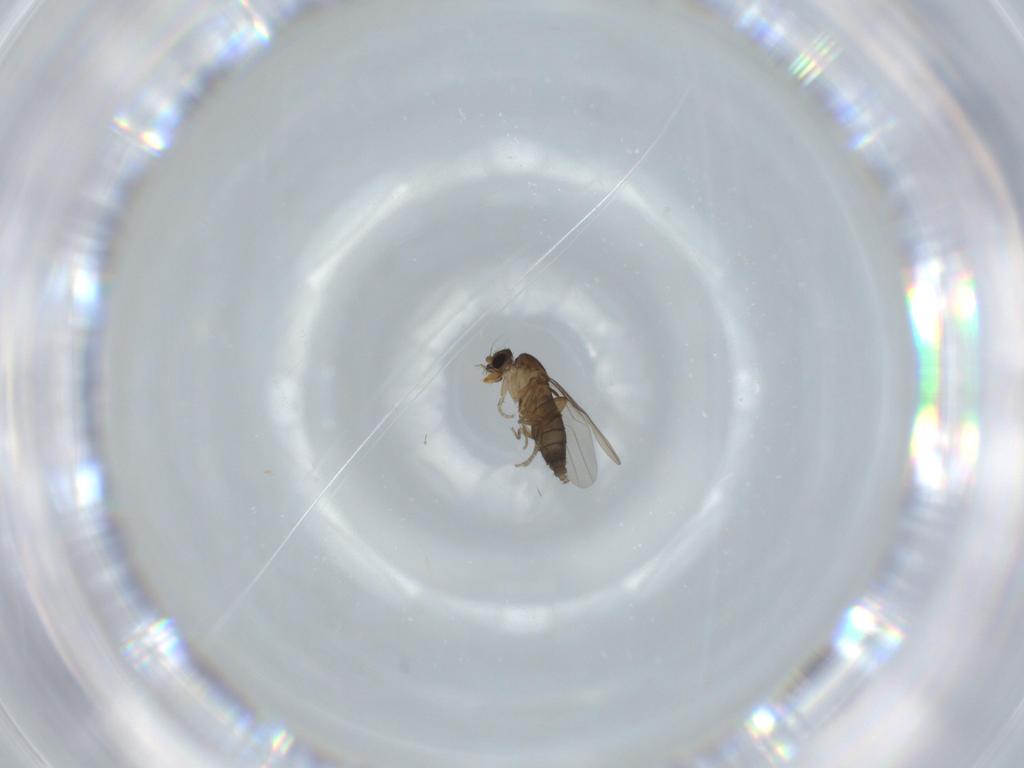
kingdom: Animalia
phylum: Arthropoda
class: Insecta
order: Diptera
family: Phoridae
